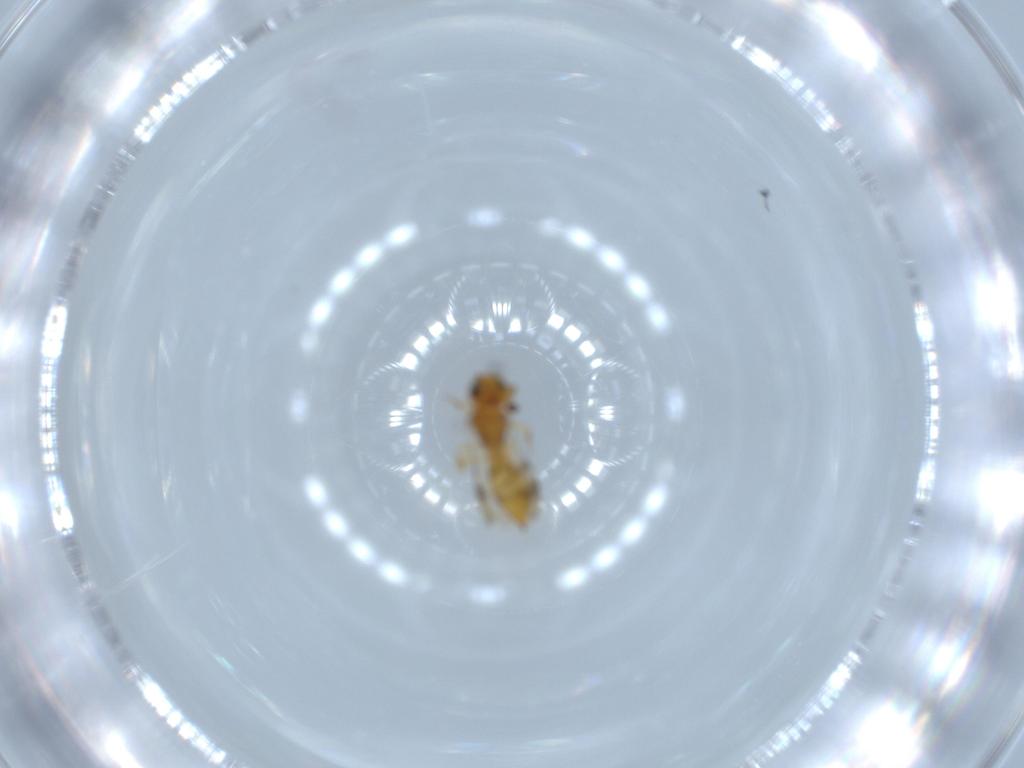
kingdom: Animalia
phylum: Arthropoda
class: Insecta
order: Hymenoptera
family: Scelionidae
